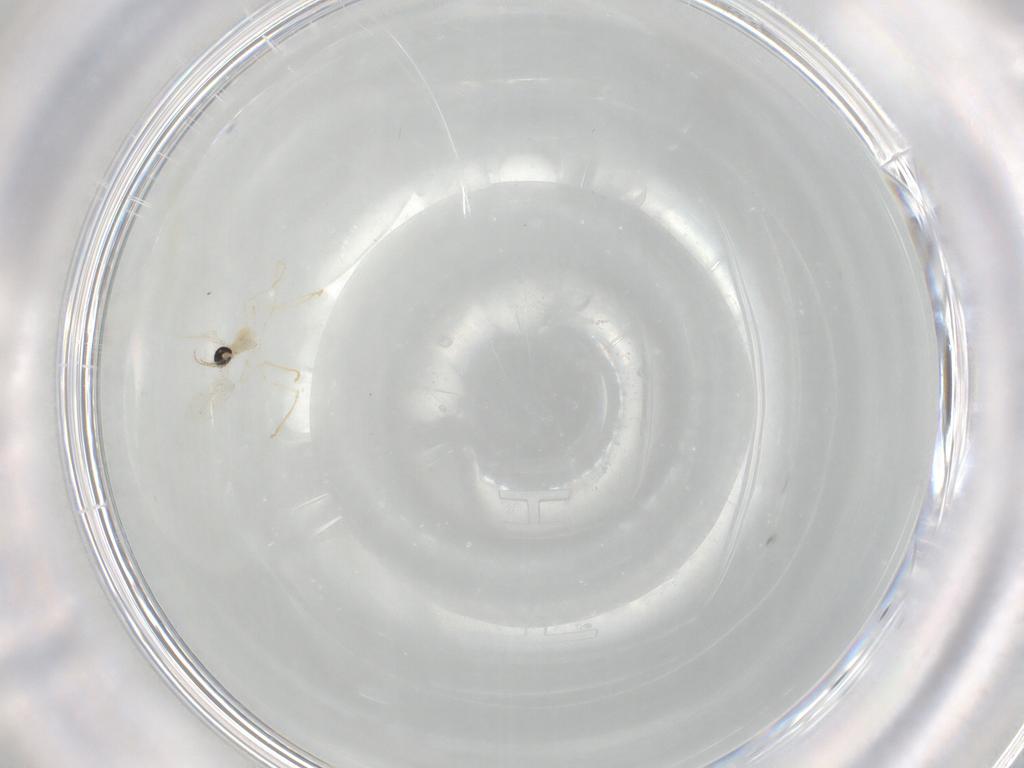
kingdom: Animalia
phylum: Arthropoda
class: Insecta
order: Diptera
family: Cecidomyiidae
